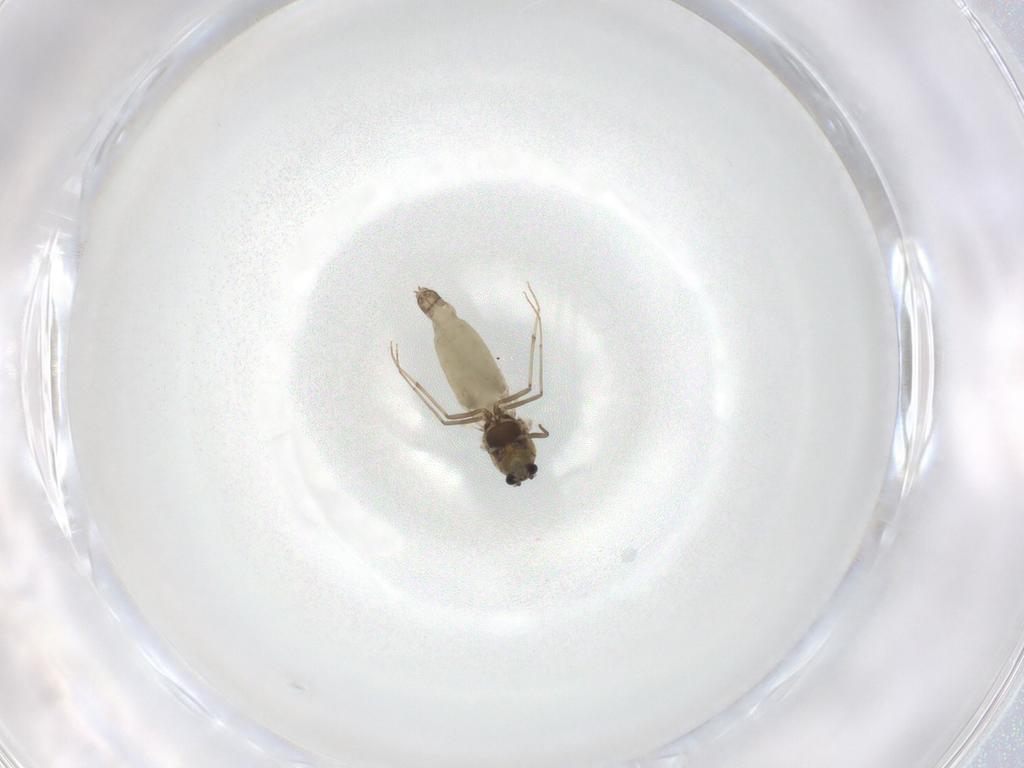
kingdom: Animalia
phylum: Arthropoda
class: Insecta
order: Diptera
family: Chironomidae
